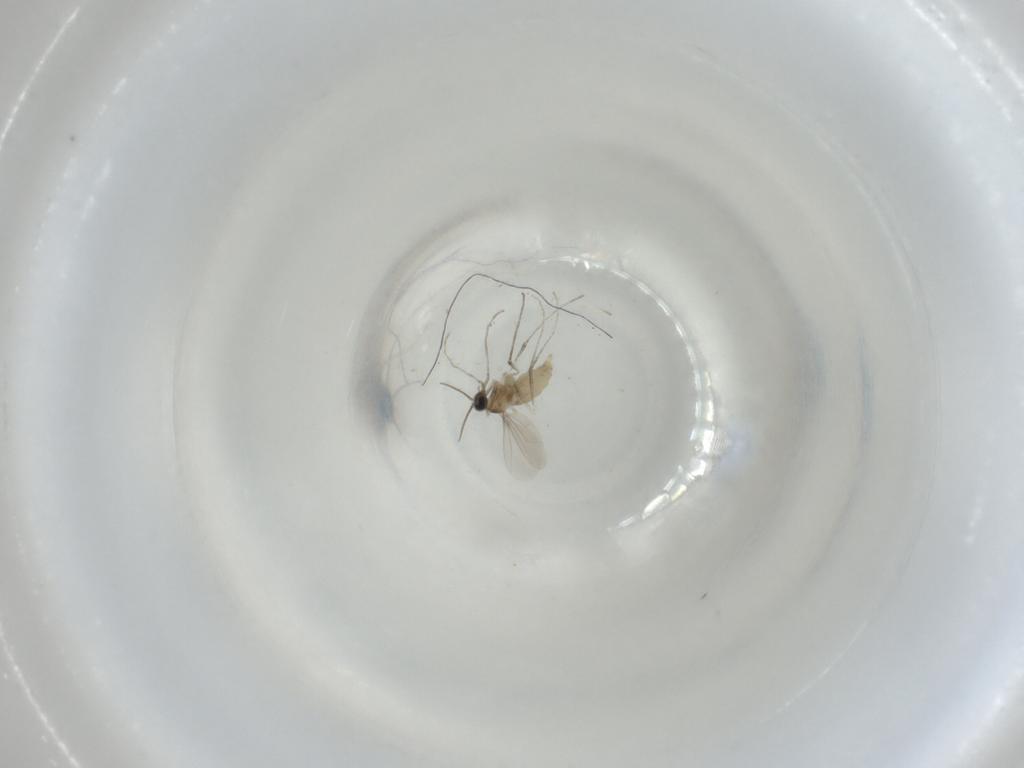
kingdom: Animalia
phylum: Arthropoda
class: Insecta
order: Diptera
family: Cecidomyiidae
